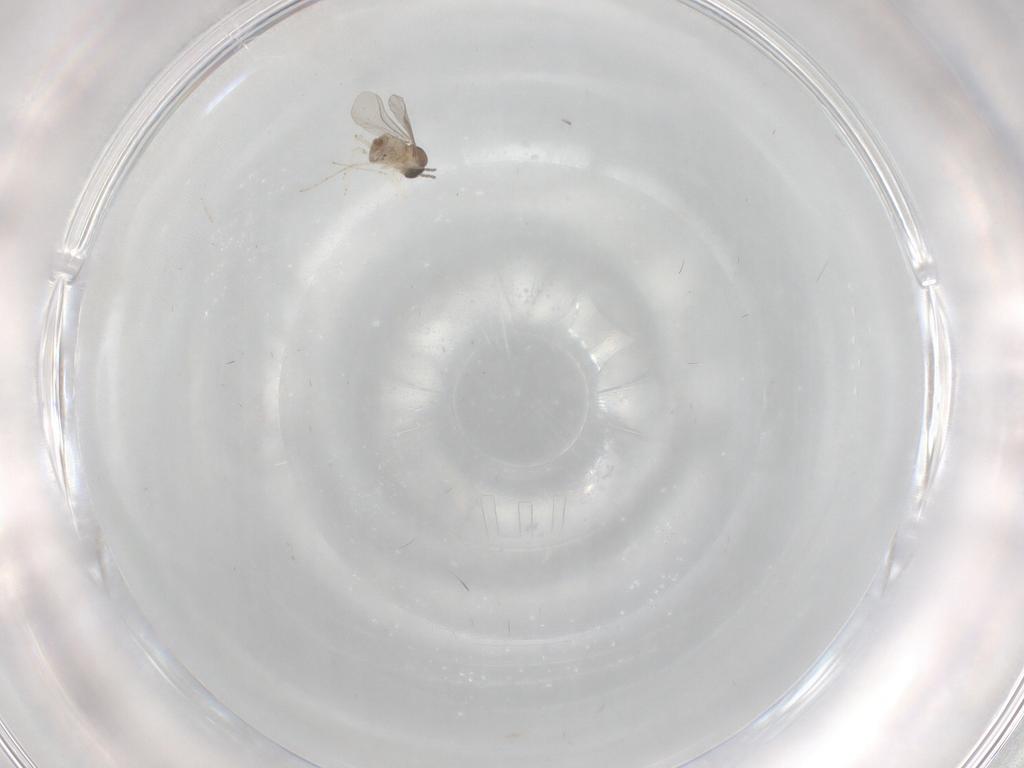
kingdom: Animalia
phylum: Arthropoda
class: Insecta
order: Diptera
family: Cecidomyiidae
